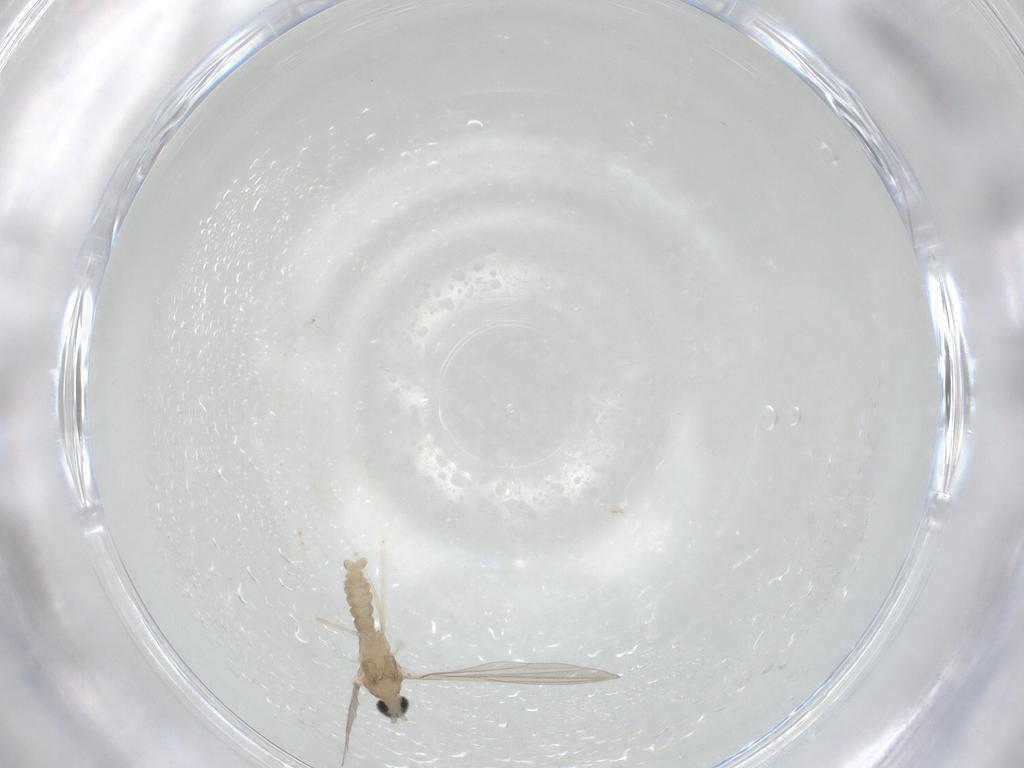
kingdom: Animalia
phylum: Arthropoda
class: Insecta
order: Diptera
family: Cecidomyiidae
